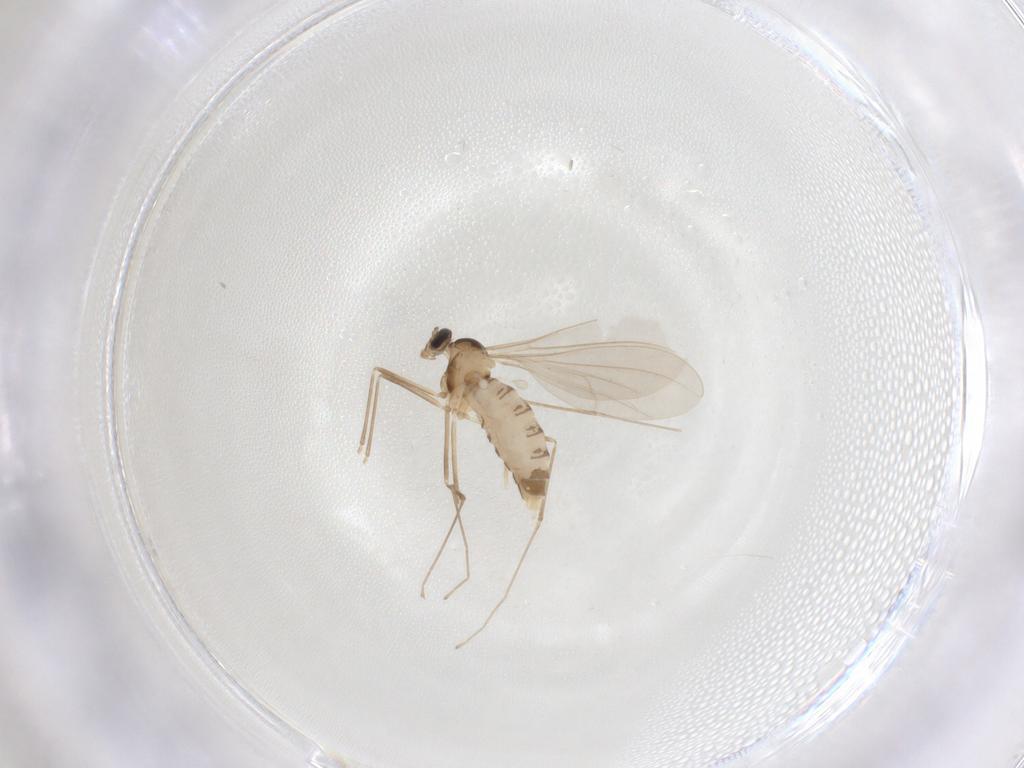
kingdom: Animalia
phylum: Arthropoda
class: Insecta
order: Diptera
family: Cecidomyiidae
